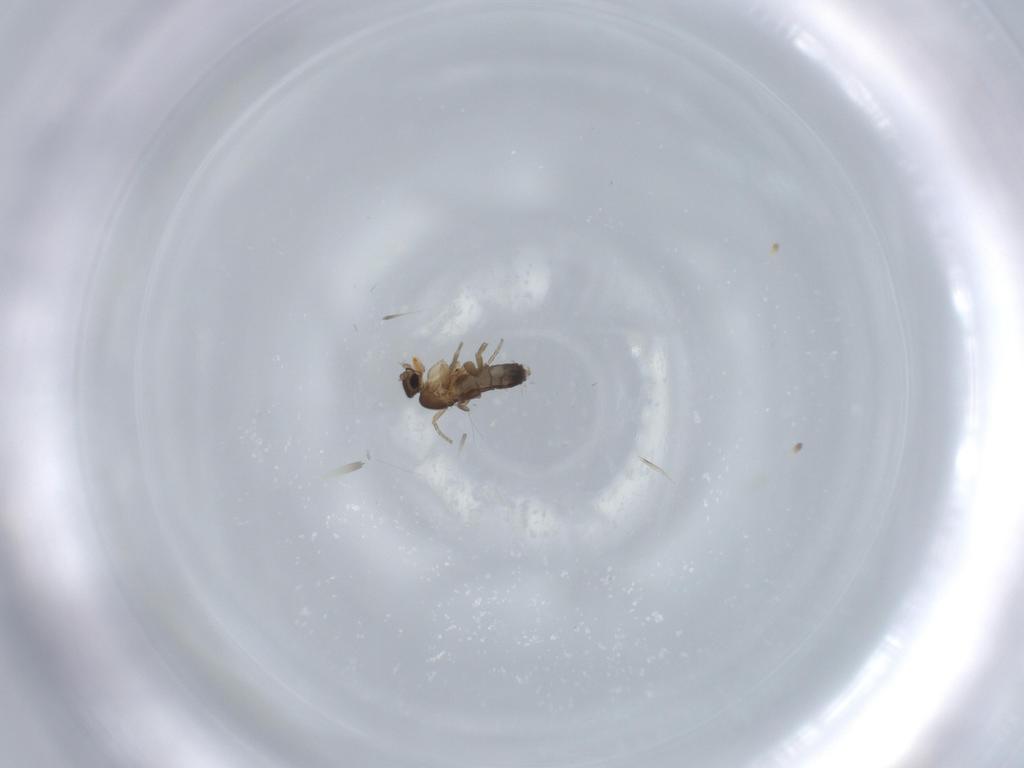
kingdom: Animalia
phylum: Arthropoda
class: Insecta
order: Diptera
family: Phoridae
